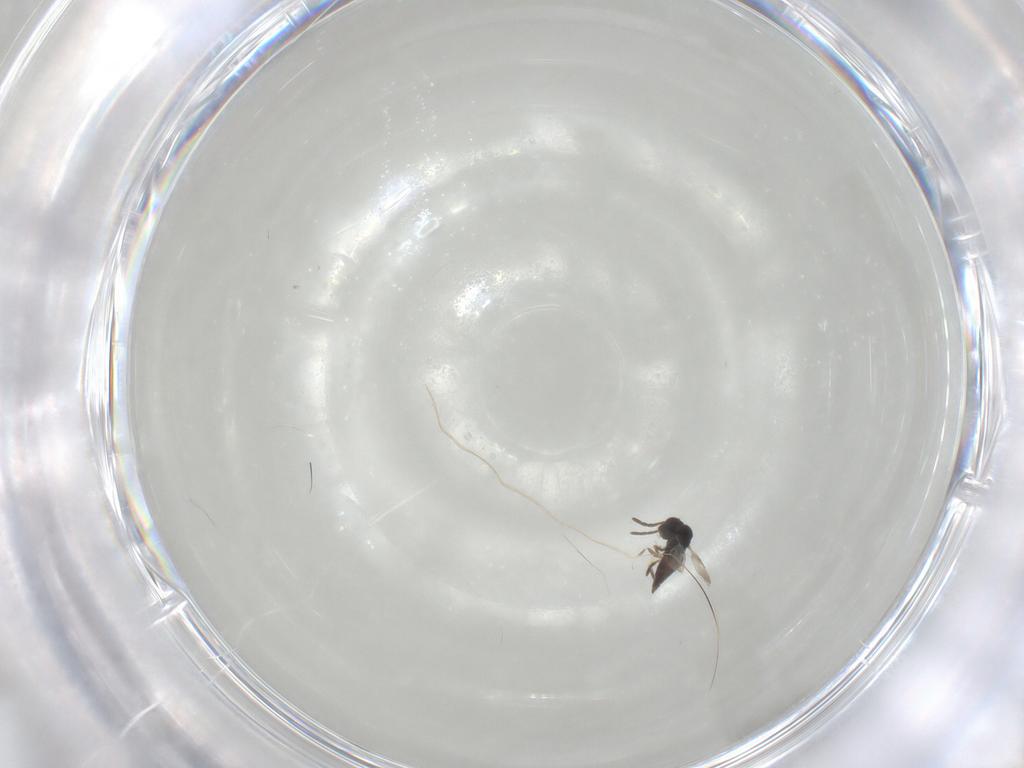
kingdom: Animalia
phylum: Arthropoda
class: Insecta
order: Hymenoptera
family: Ceraphronidae
